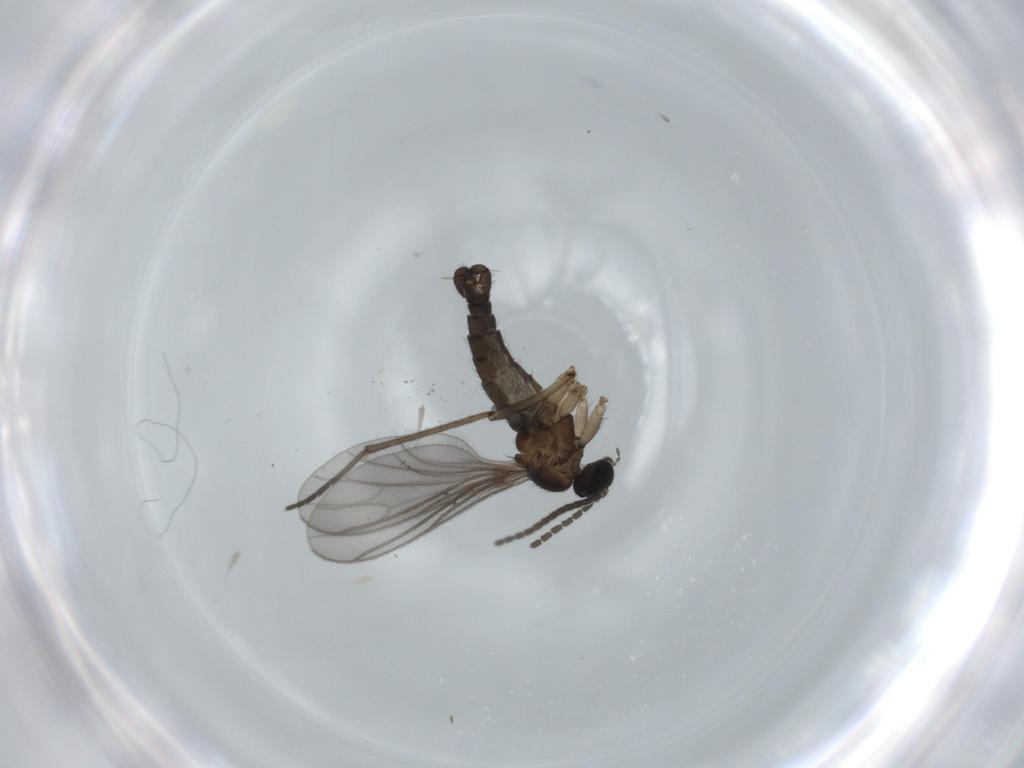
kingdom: Animalia
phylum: Arthropoda
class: Insecta
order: Diptera
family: Sciaridae
